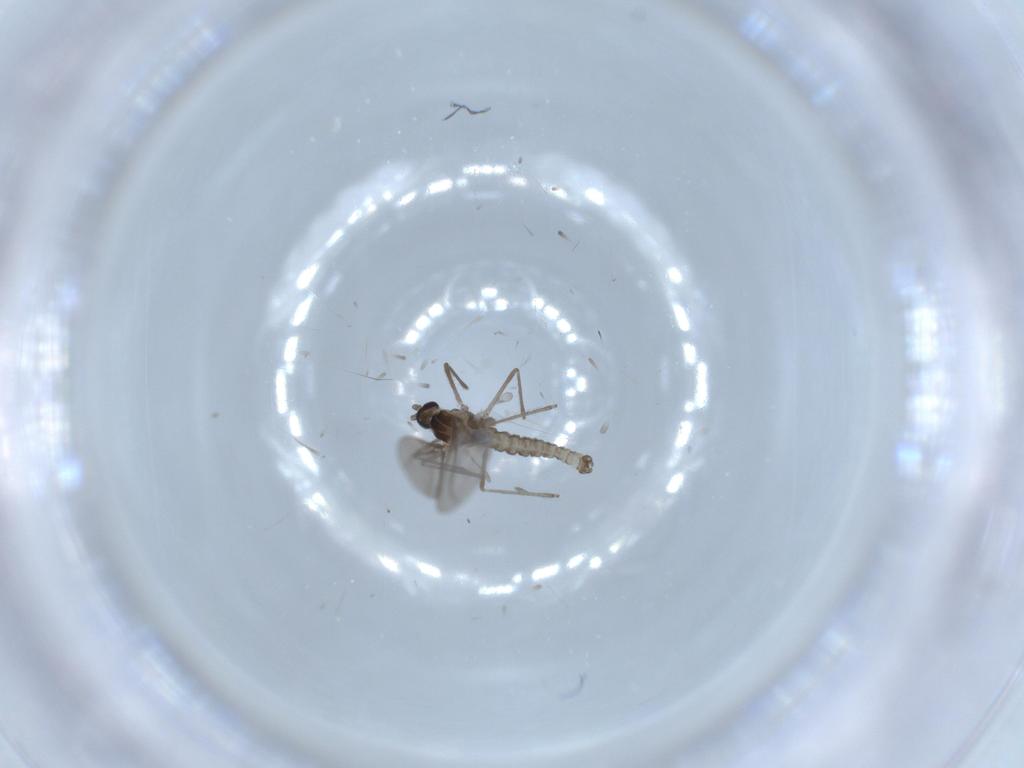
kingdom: Animalia
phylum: Arthropoda
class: Insecta
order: Diptera
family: Cecidomyiidae
